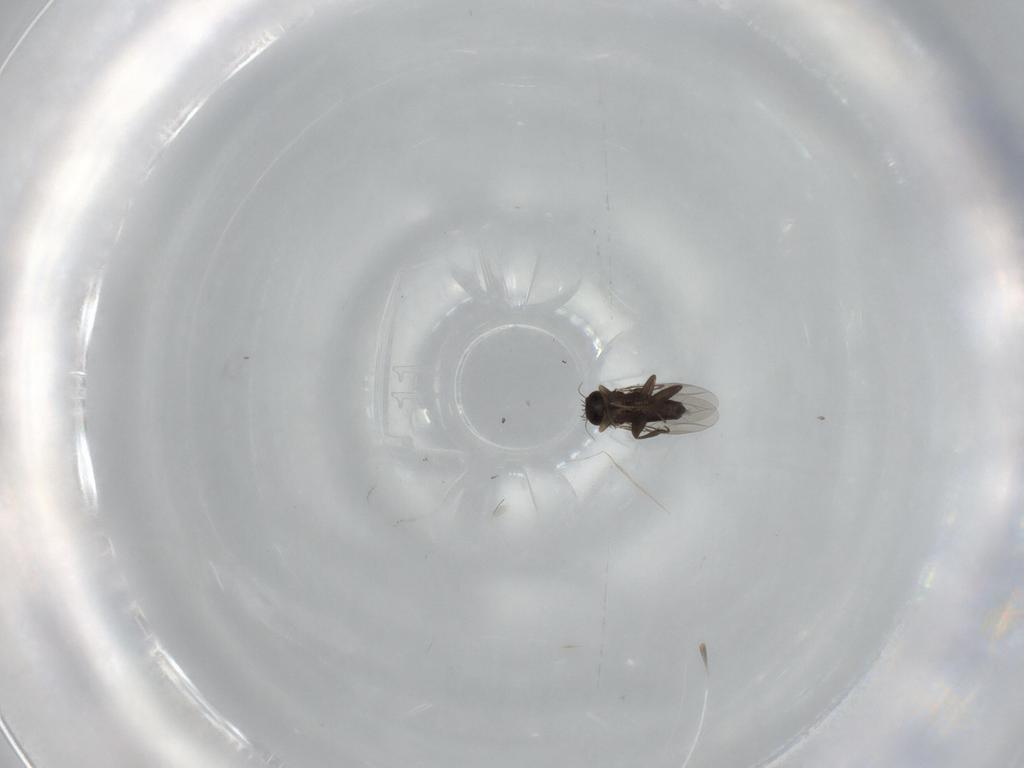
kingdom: Animalia
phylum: Arthropoda
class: Insecta
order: Diptera
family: Phoridae
